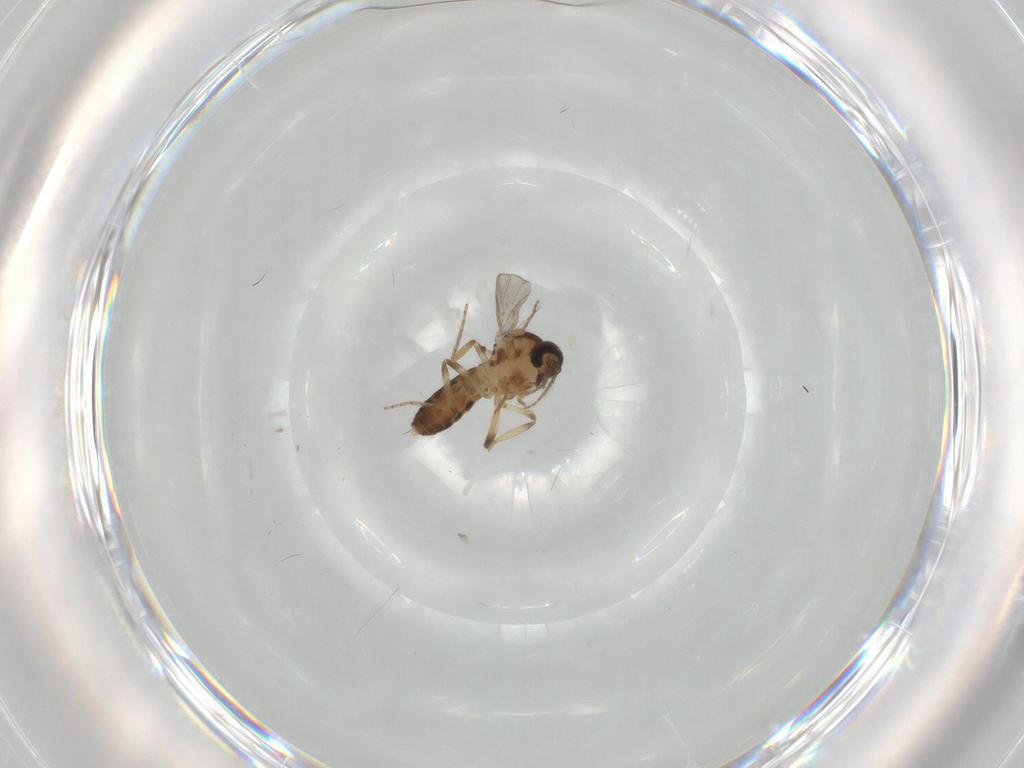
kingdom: Animalia
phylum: Arthropoda
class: Insecta
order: Diptera
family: Ceratopogonidae
